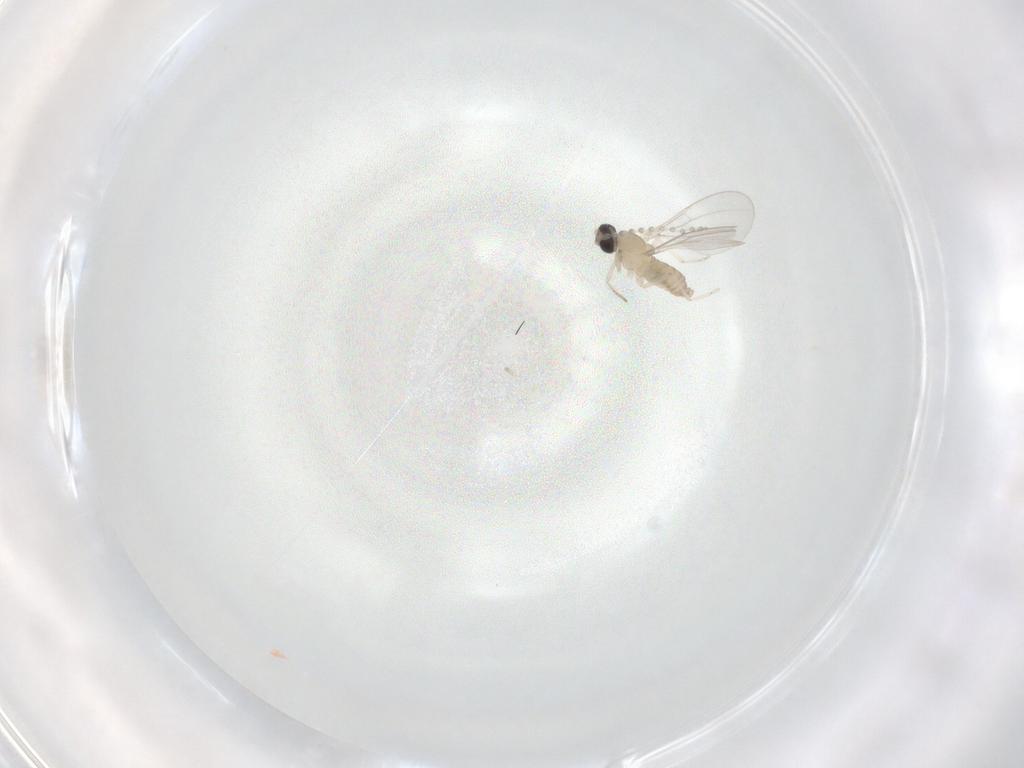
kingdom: Animalia
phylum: Arthropoda
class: Insecta
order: Diptera
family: Cecidomyiidae
